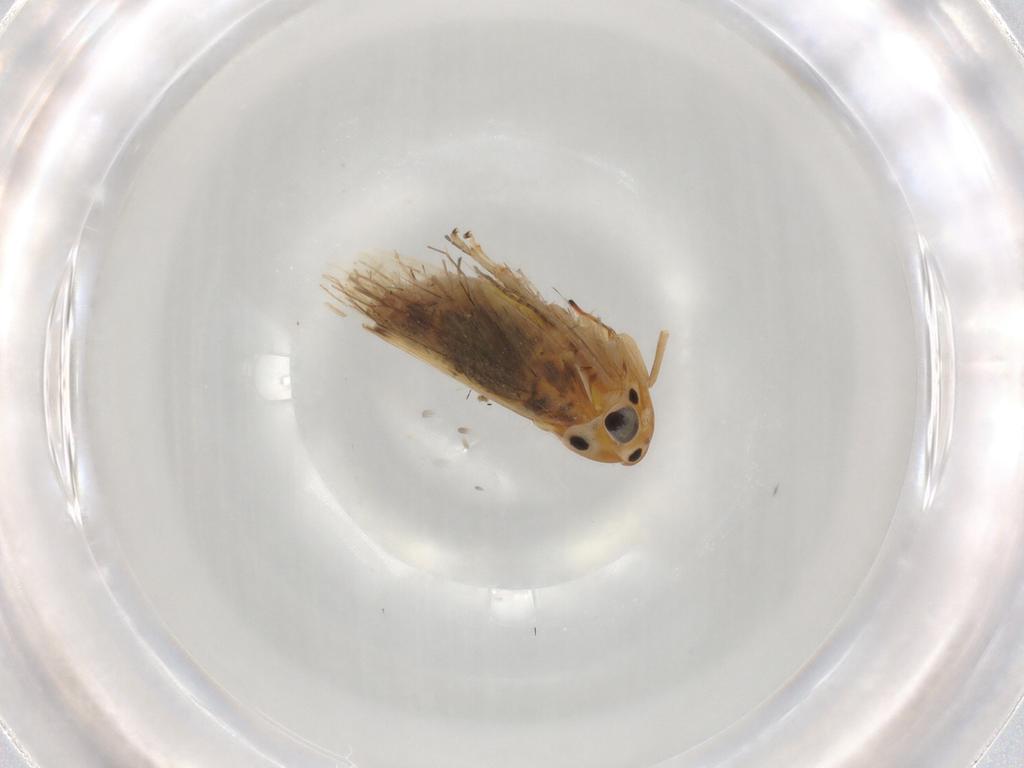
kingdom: Animalia
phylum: Arthropoda
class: Insecta
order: Hemiptera
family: Cicadellidae
